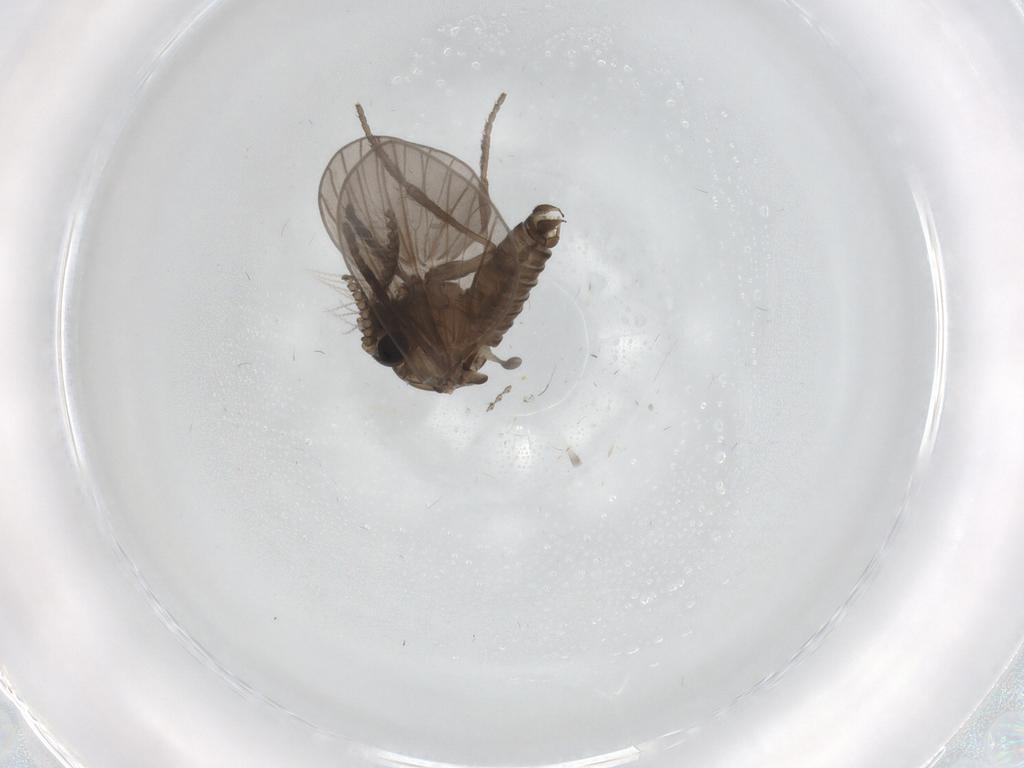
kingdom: Animalia
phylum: Arthropoda
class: Insecta
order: Diptera
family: Psychodidae
